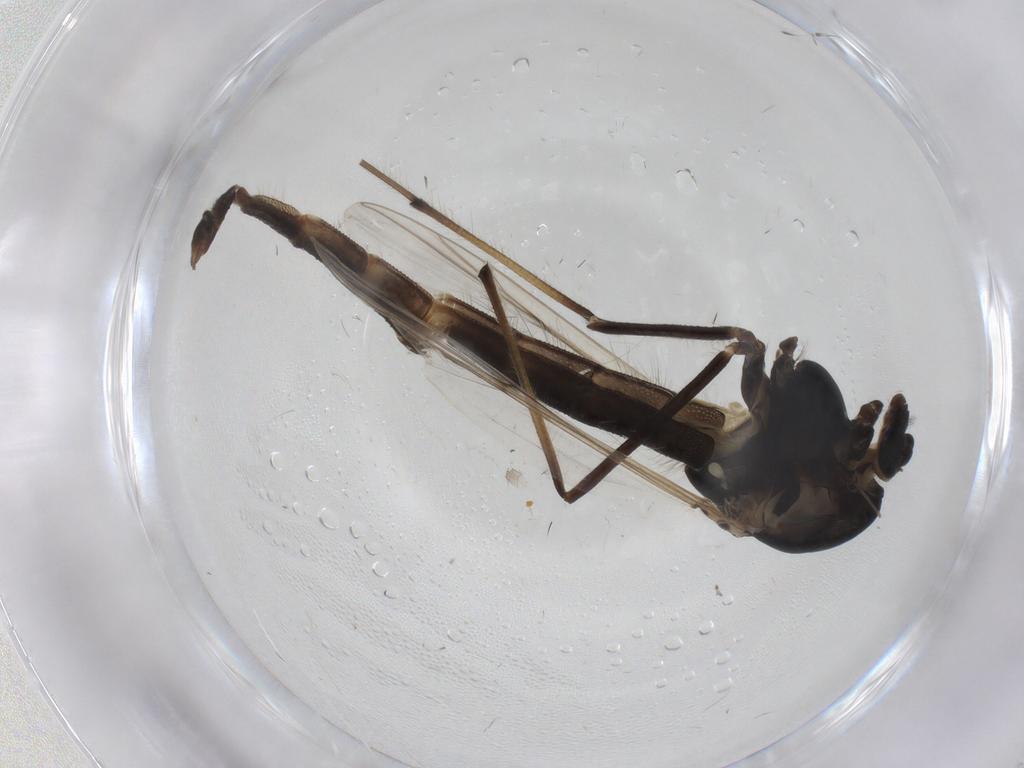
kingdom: Animalia
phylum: Arthropoda
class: Insecta
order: Diptera
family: Chironomidae
